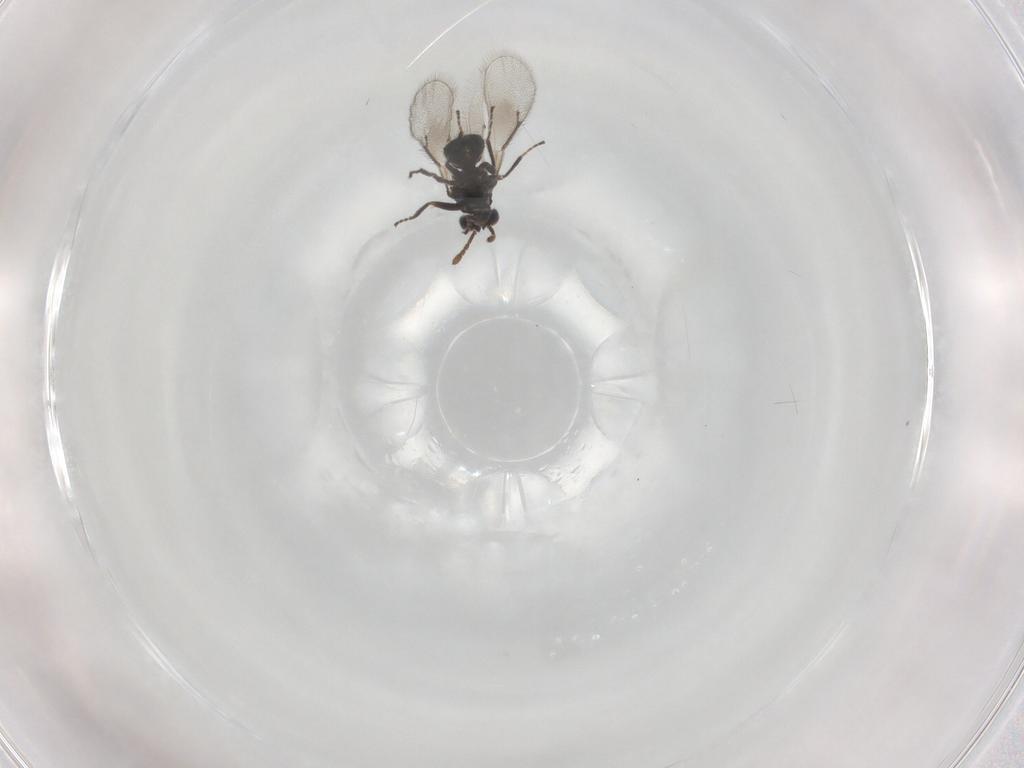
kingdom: Animalia
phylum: Arthropoda
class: Insecta
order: Hymenoptera
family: Eulophidae
